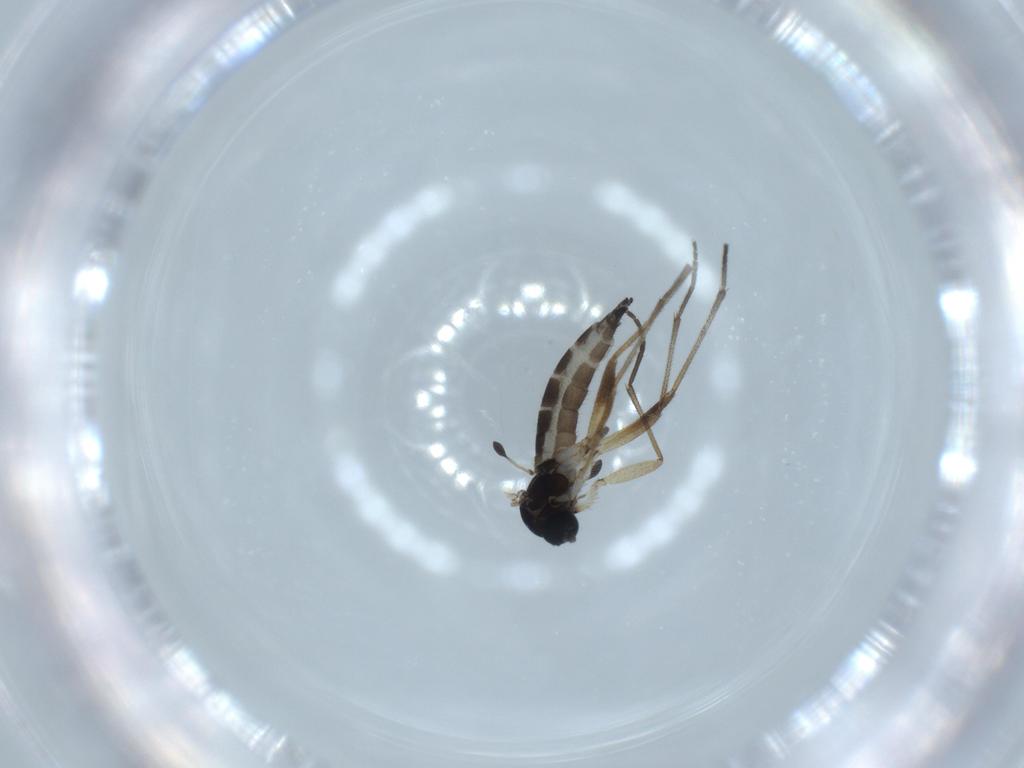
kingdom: Animalia
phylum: Arthropoda
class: Insecta
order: Diptera
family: Sciaridae
